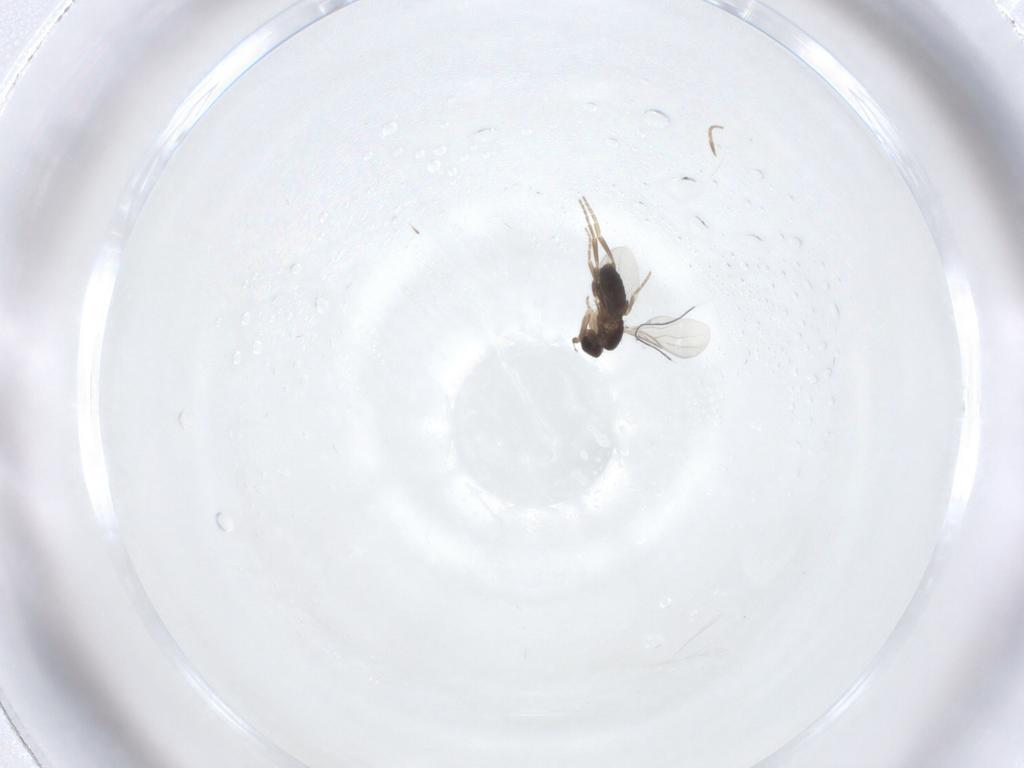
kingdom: Animalia
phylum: Arthropoda
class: Insecta
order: Diptera
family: Phoridae
